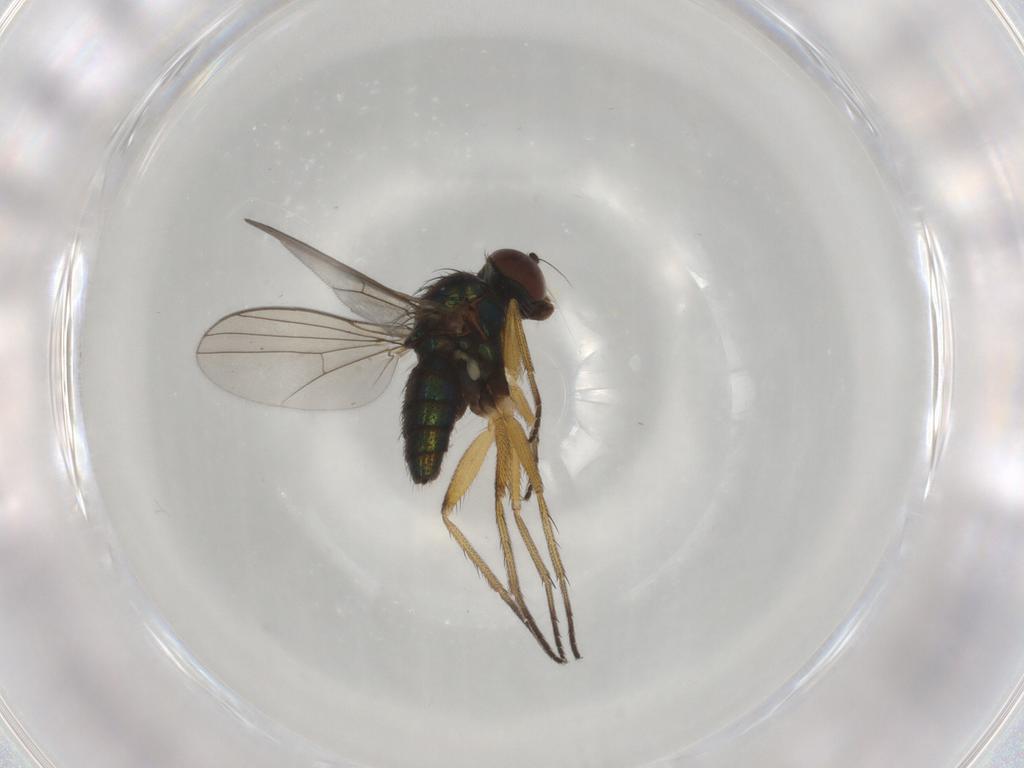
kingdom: Animalia
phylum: Arthropoda
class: Insecta
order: Diptera
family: Dolichopodidae
